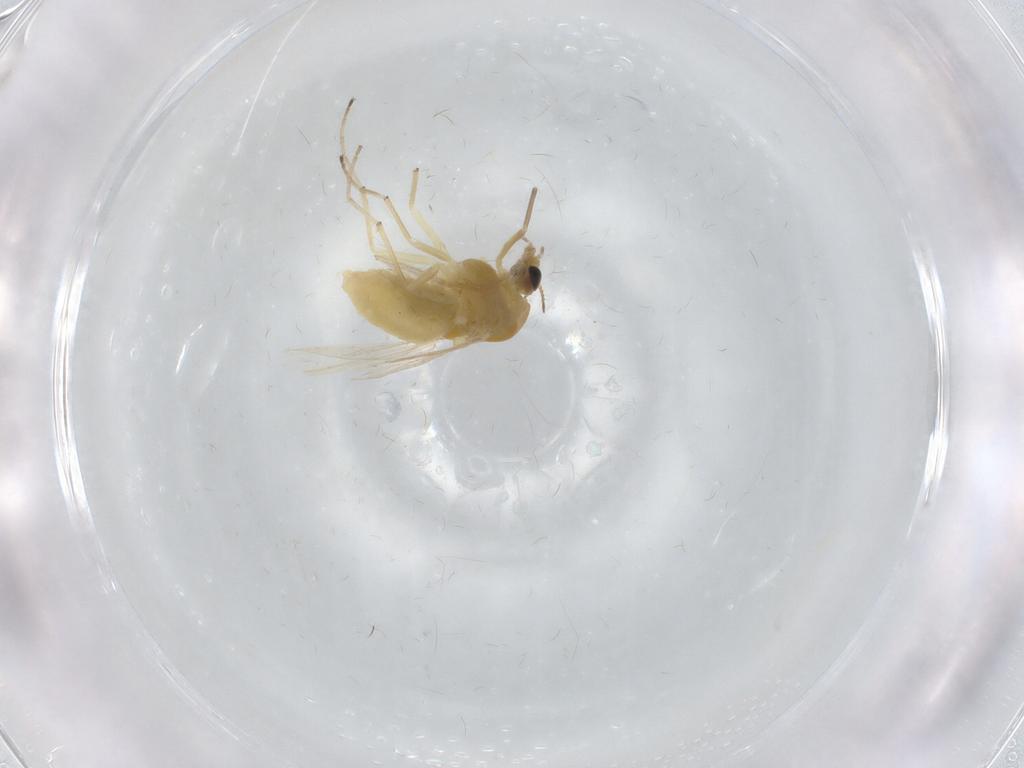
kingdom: Animalia
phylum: Arthropoda
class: Insecta
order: Diptera
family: Chironomidae
